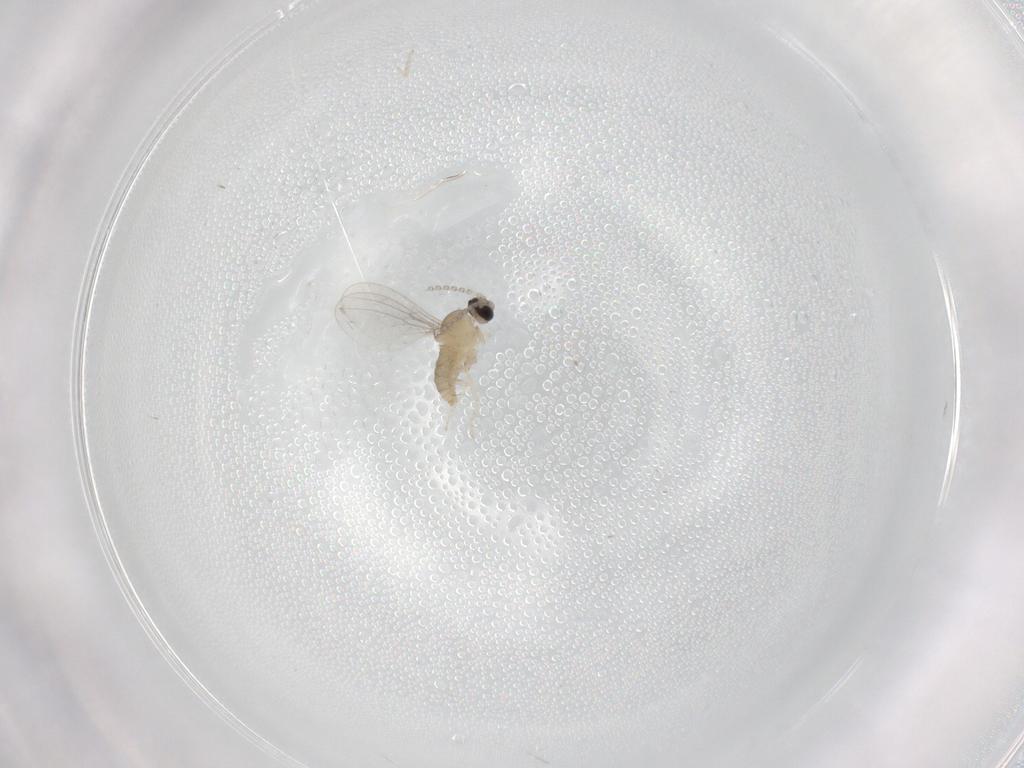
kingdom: Animalia
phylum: Arthropoda
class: Insecta
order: Diptera
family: Cecidomyiidae
